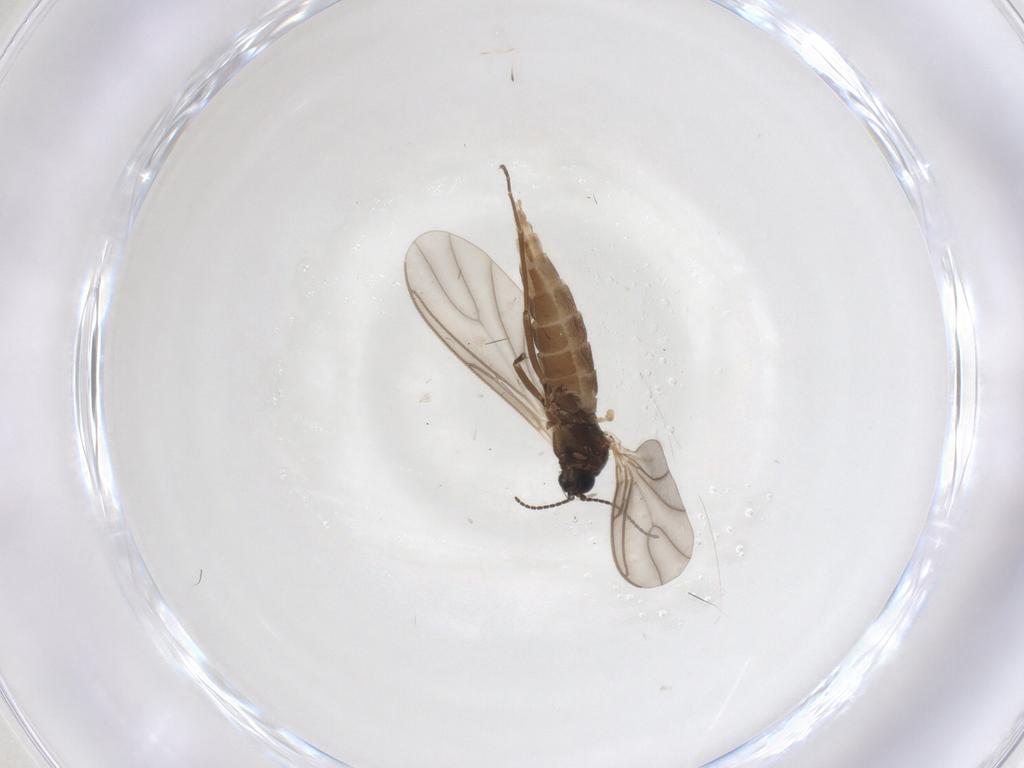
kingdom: Animalia
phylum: Arthropoda
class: Insecta
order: Diptera
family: Sciaridae
